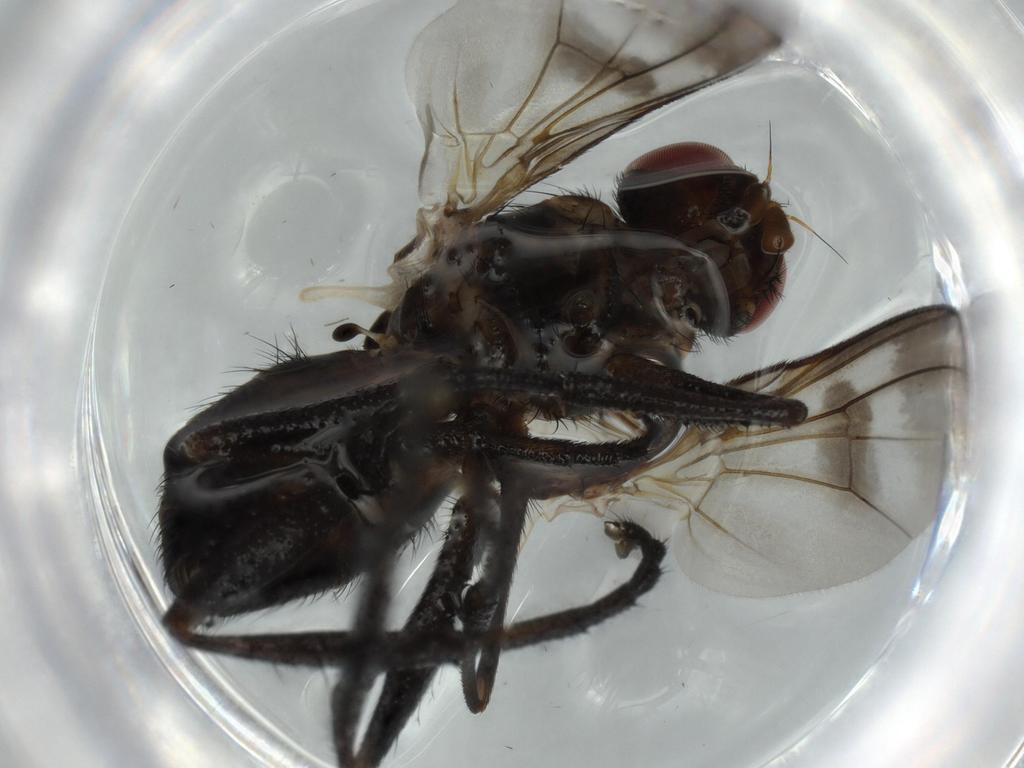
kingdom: Animalia
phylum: Arthropoda
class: Insecta
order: Diptera
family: Calliphoridae
